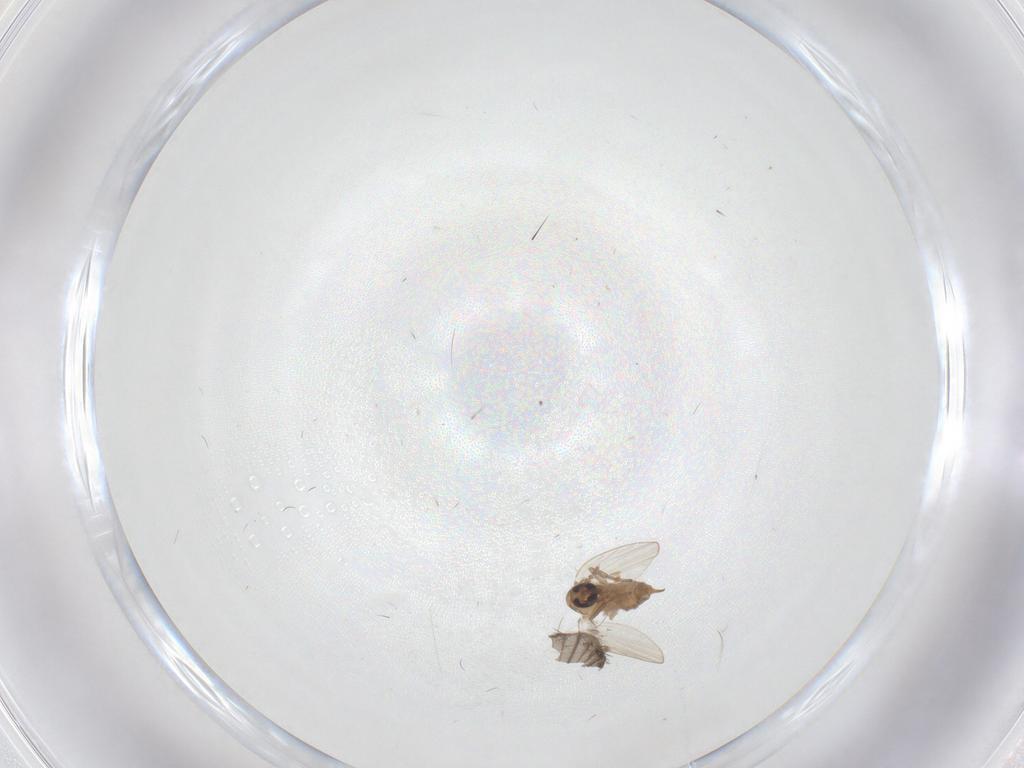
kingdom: Animalia
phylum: Arthropoda
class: Insecta
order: Diptera
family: Psychodidae
